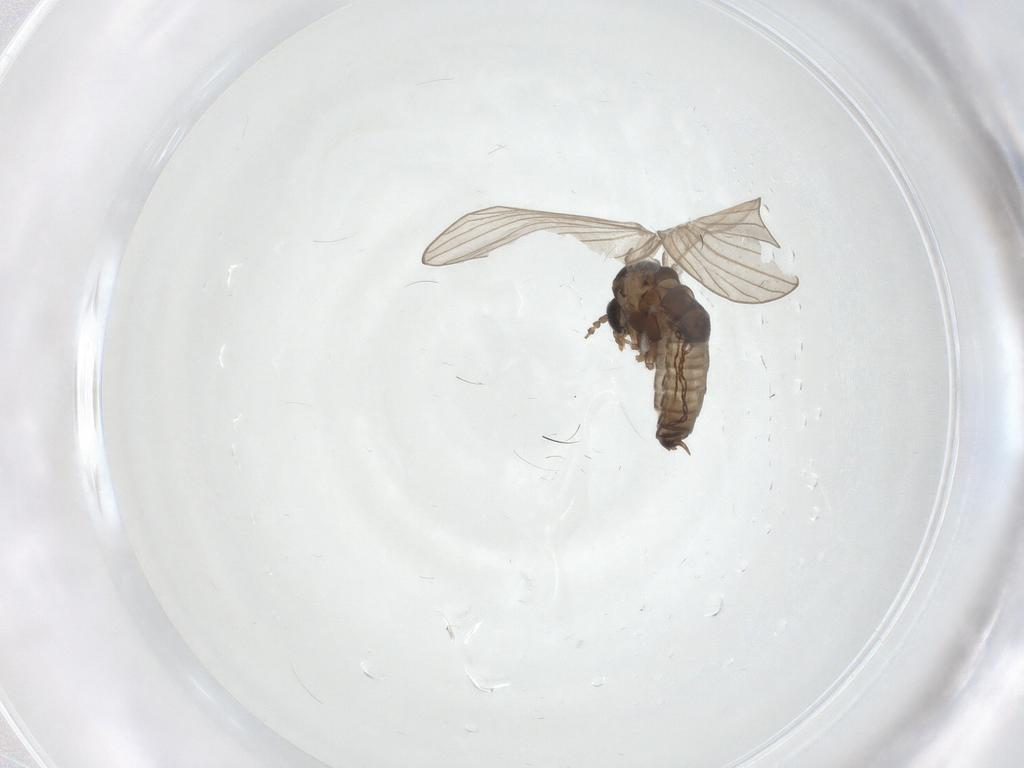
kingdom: Animalia
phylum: Arthropoda
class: Insecta
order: Diptera
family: Psychodidae
